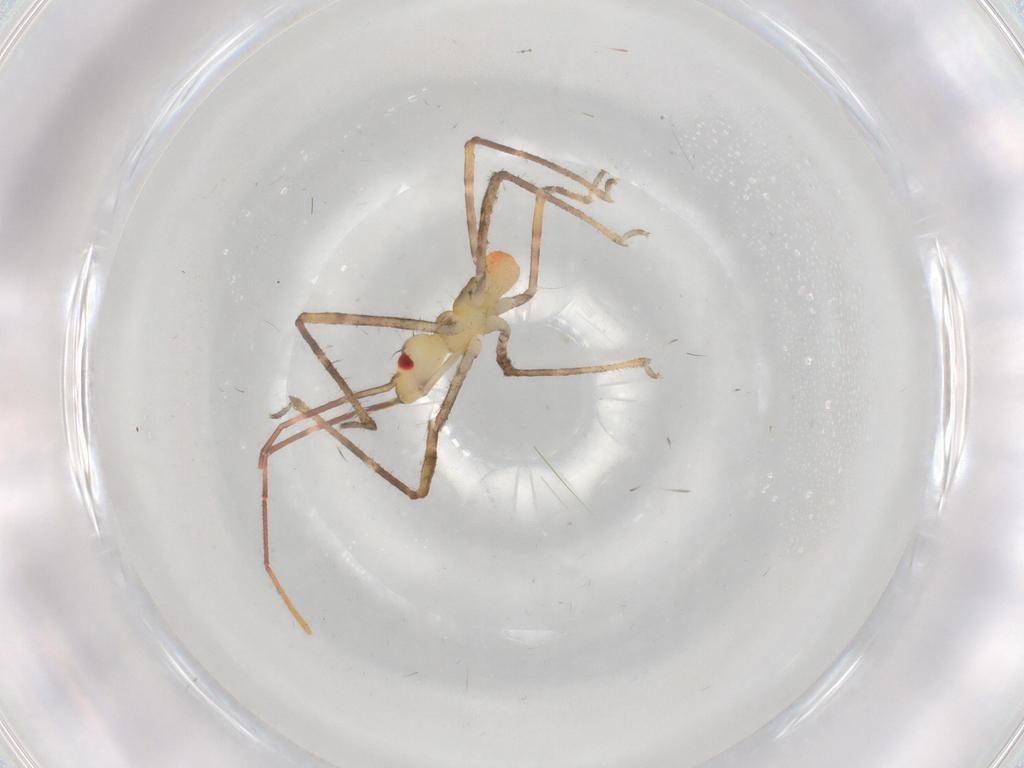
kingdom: Animalia
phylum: Arthropoda
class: Insecta
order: Hemiptera
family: Reduviidae
